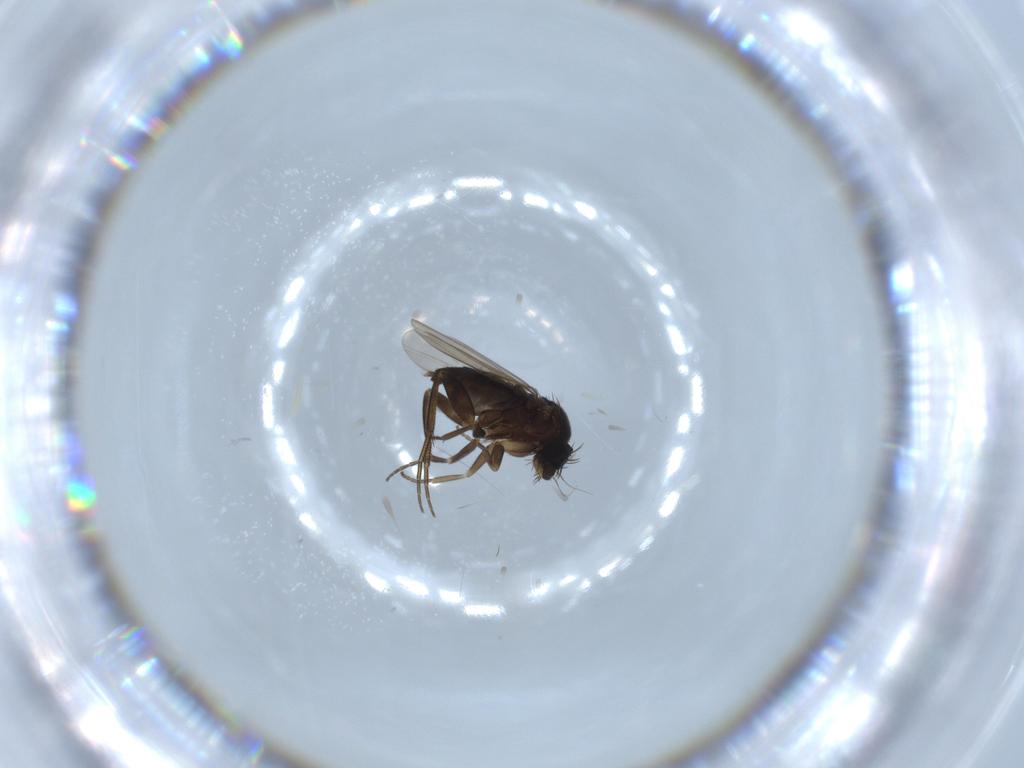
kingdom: Animalia
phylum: Arthropoda
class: Insecta
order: Diptera
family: Phoridae
